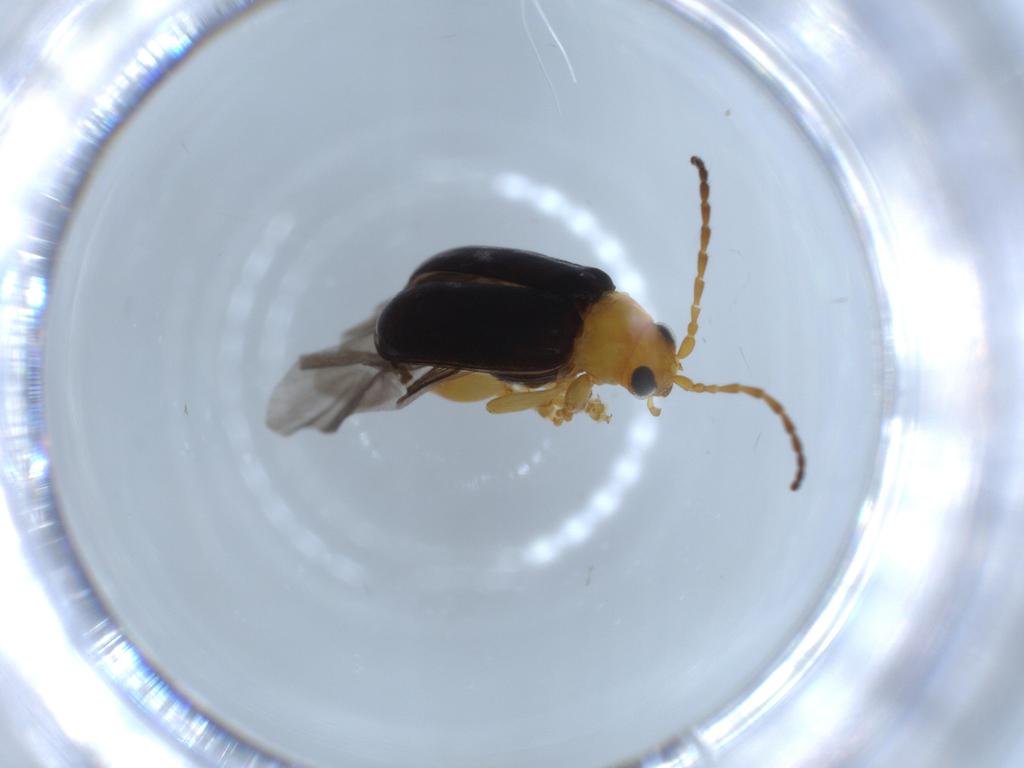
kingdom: Animalia
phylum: Arthropoda
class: Insecta
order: Coleoptera
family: Chrysomelidae
